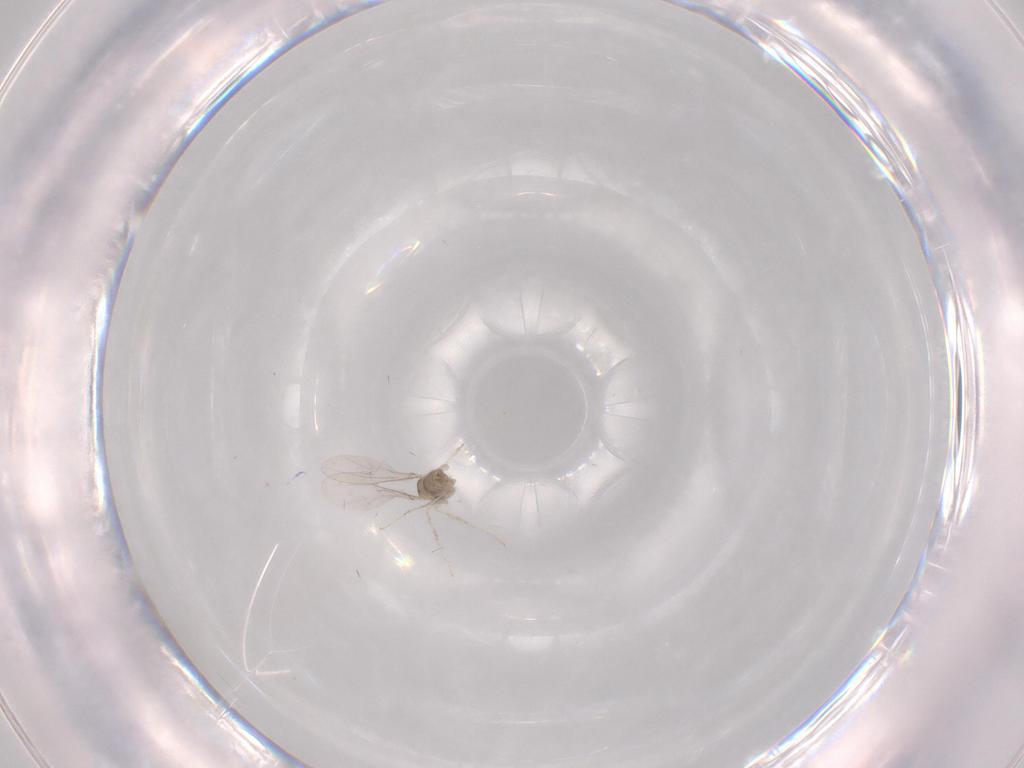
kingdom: Animalia
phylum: Arthropoda
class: Insecta
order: Diptera
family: Cecidomyiidae
